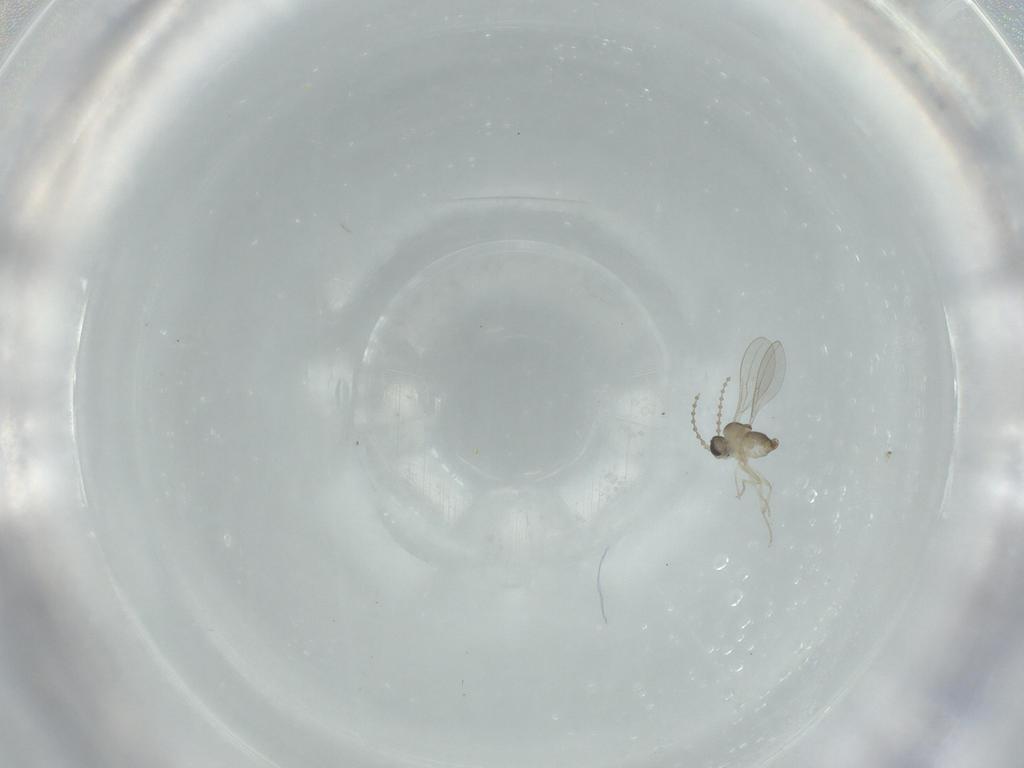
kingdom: Animalia
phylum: Arthropoda
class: Insecta
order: Diptera
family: Cecidomyiidae
